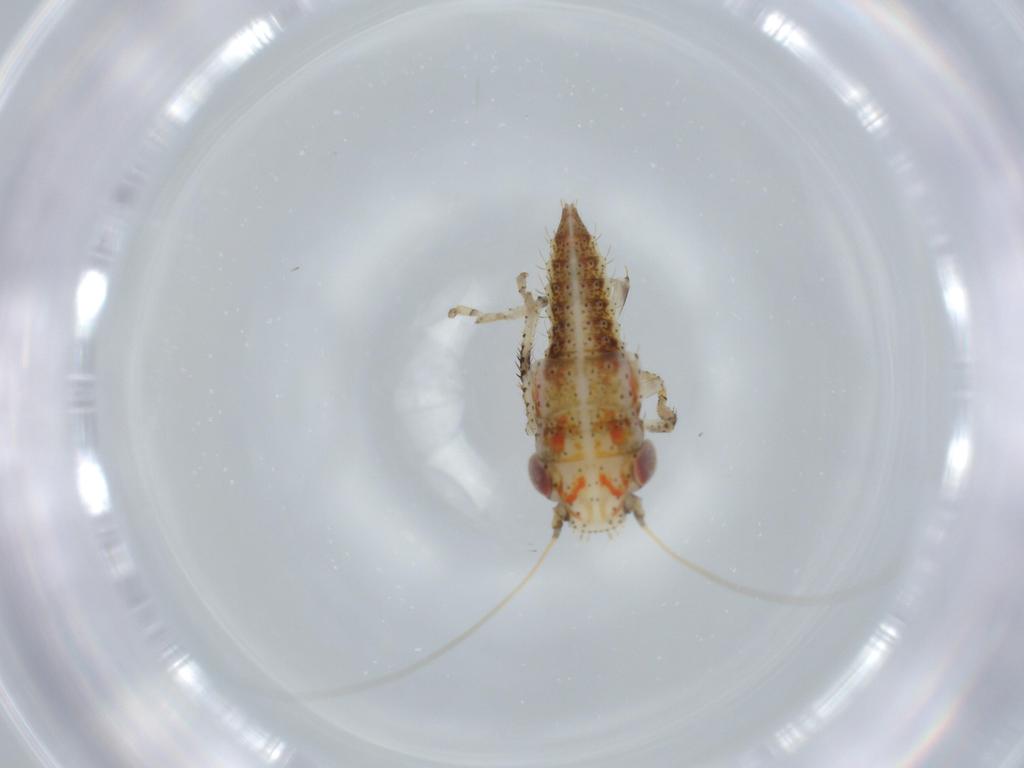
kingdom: Animalia
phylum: Arthropoda
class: Insecta
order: Hemiptera
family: Cicadellidae
